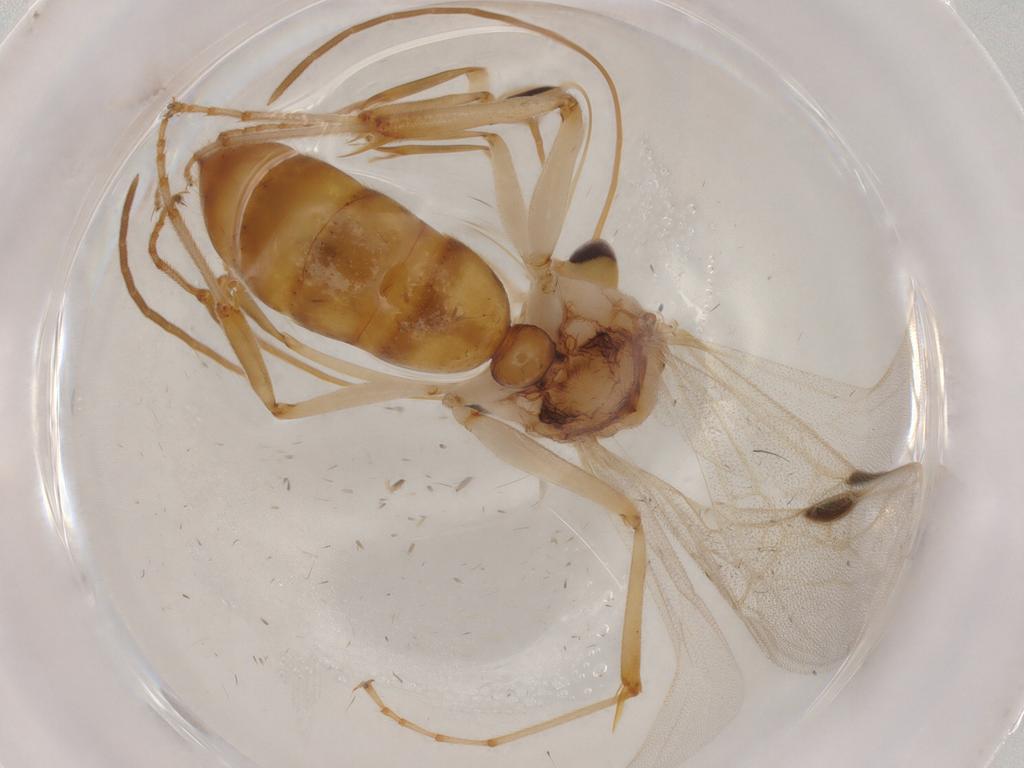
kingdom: Animalia
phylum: Arthropoda
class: Insecta
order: Hymenoptera
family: Formicidae
